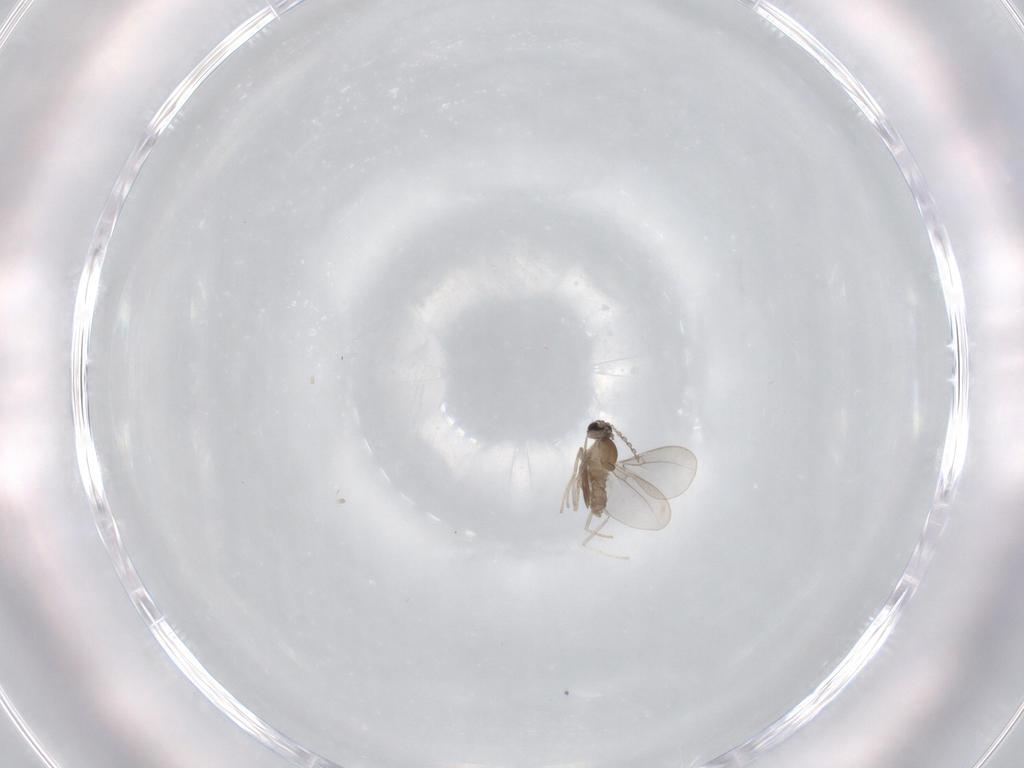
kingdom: Animalia
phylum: Arthropoda
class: Insecta
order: Diptera
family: Cecidomyiidae
